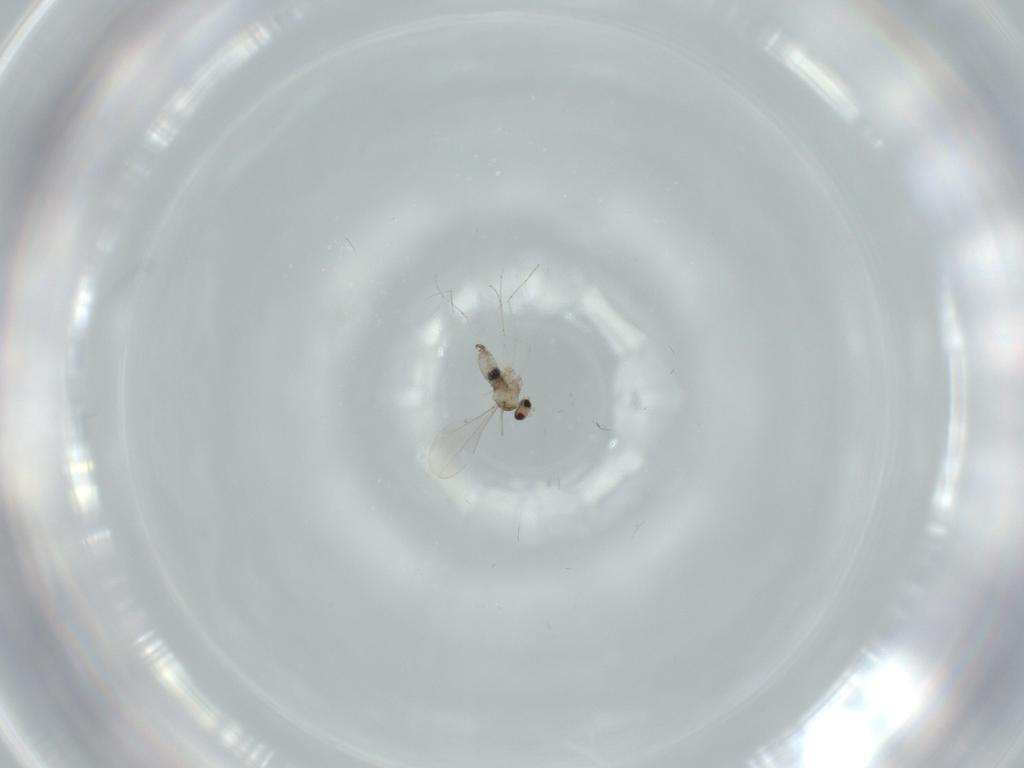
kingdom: Animalia
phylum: Arthropoda
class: Insecta
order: Diptera
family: Cecidomyiidae
